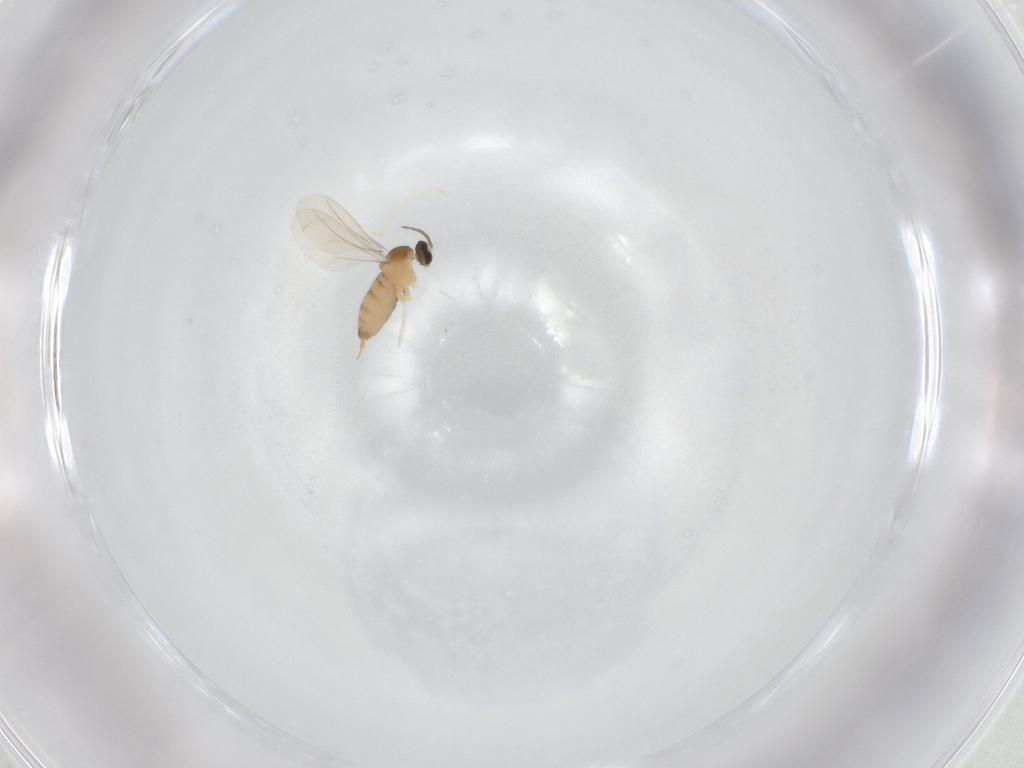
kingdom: Animalia
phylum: Arthropoda
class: Insecta
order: Diptera
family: Cecidomyiidae
